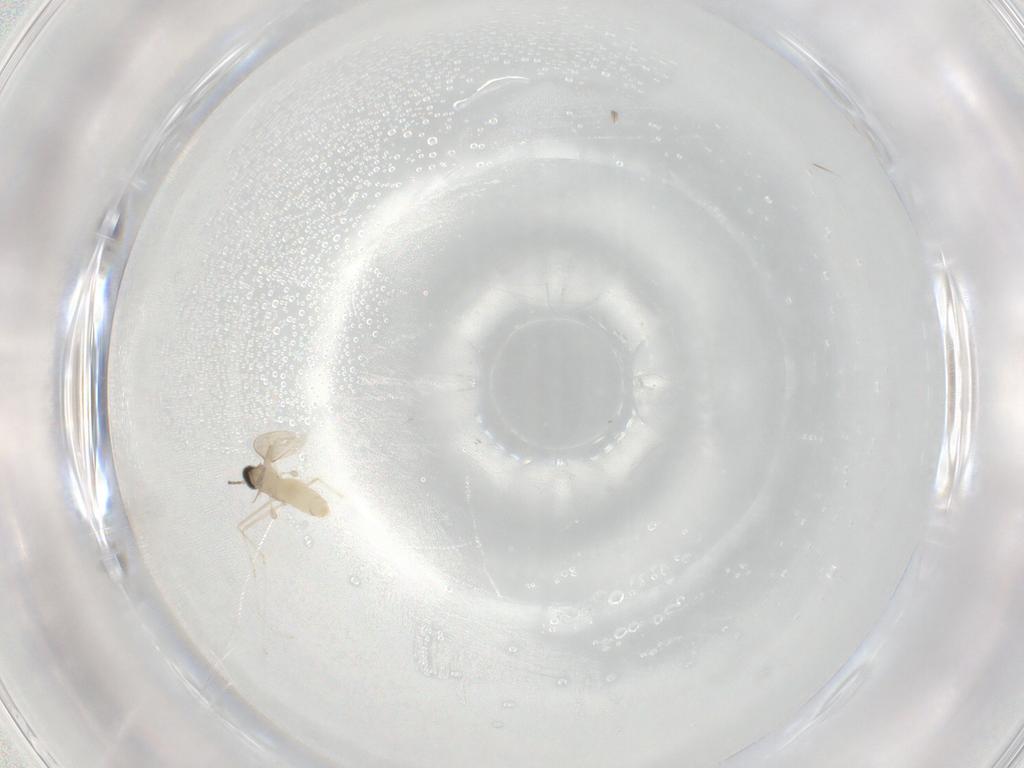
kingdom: Animalia
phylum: Arthropoda
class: Insecta
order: Diptera
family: Cecidomyiidae
